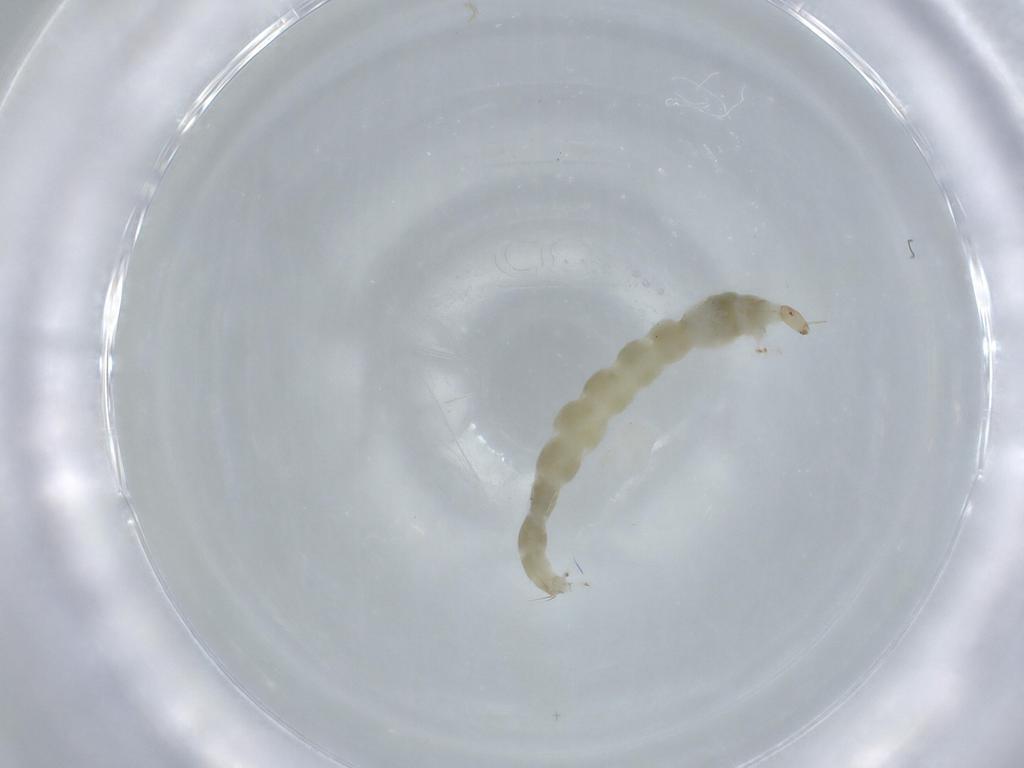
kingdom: Animalia
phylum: Arthropoda
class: Insecta
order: Diptera
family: Chironomidae
